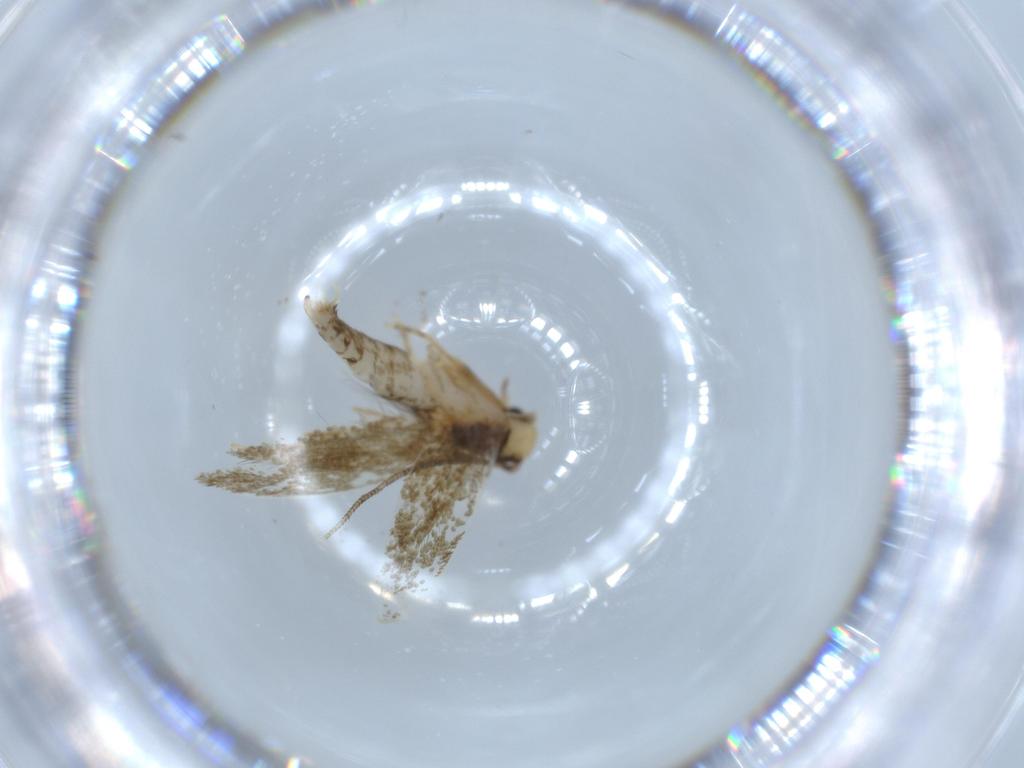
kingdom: Animalia
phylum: Arthropoda
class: Insecta
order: Lepidoptera
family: Tineidae
